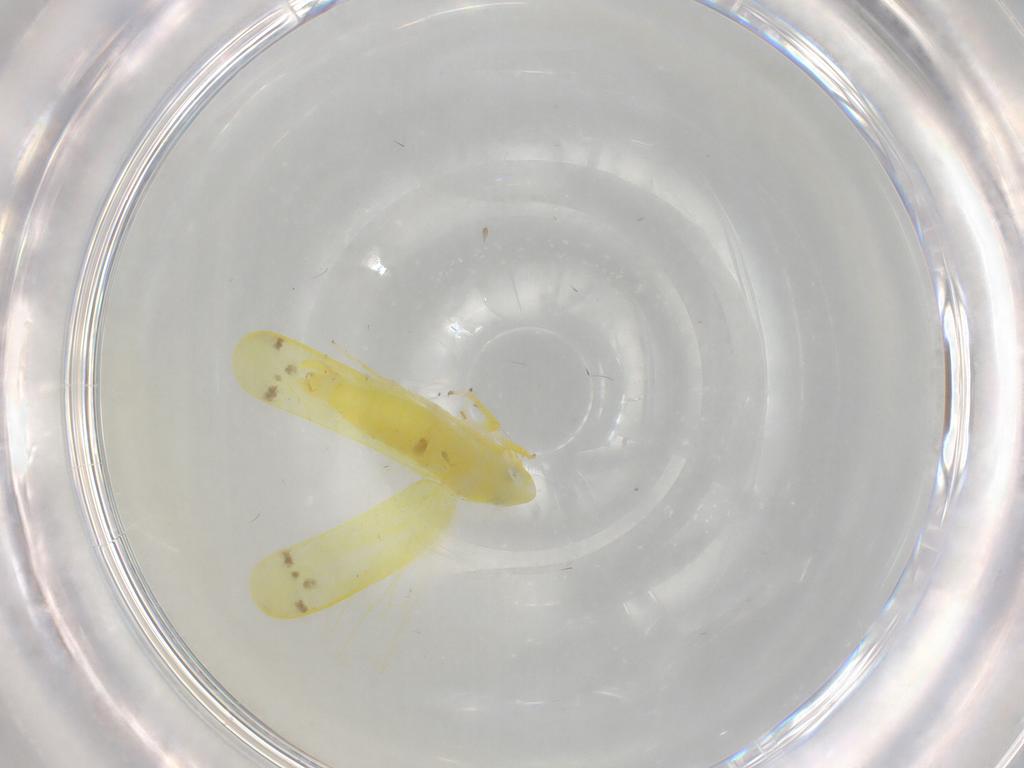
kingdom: Animalia
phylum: Arthropoda
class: Insecta
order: Hemiptera
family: Cicadellidae
